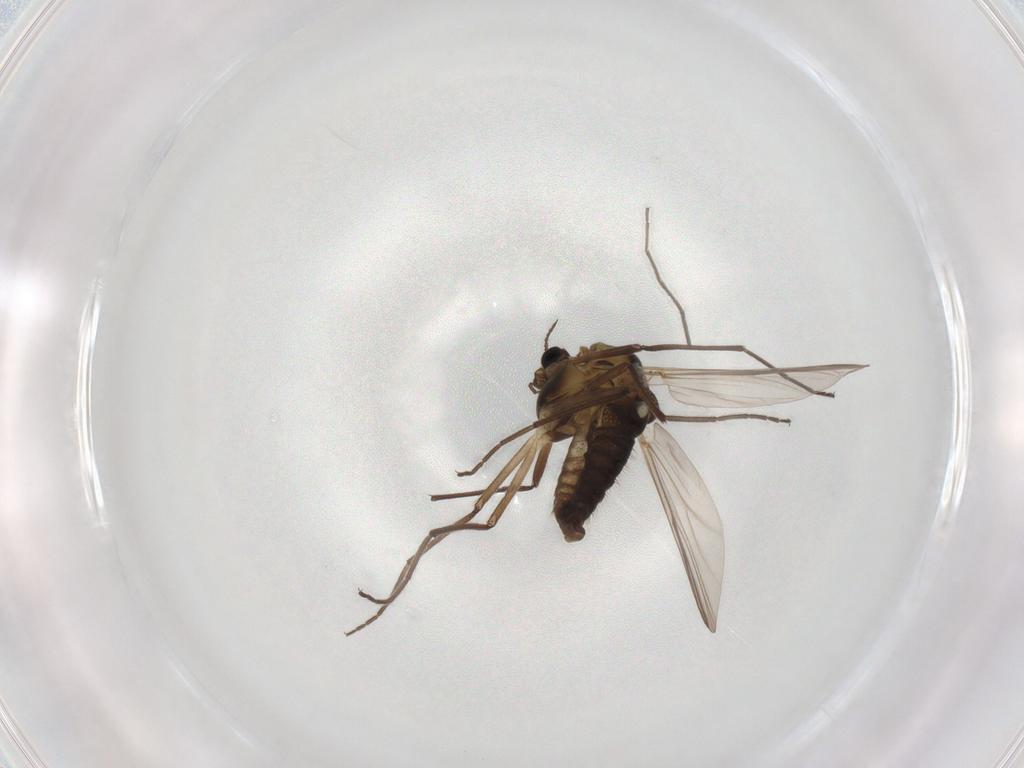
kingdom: Animalia
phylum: Arthropoda
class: Insecta
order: Diptera
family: Chironomidae
